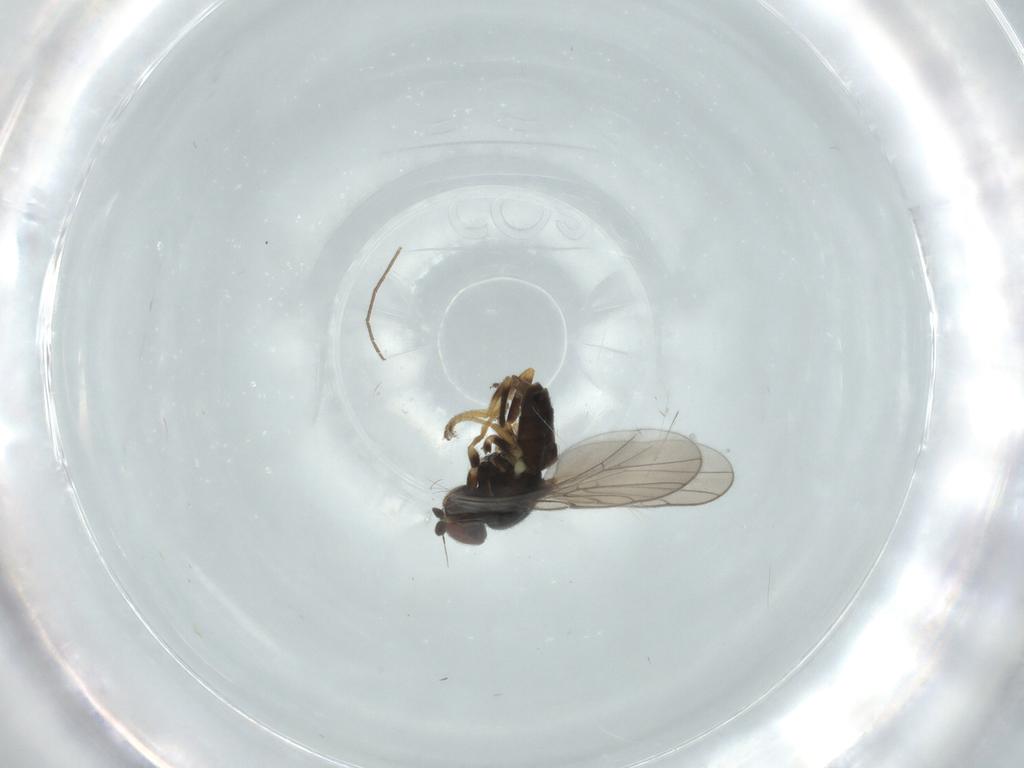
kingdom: Animalia
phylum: Arthropoda
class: Insecta
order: Diptera
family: Chloropidae
